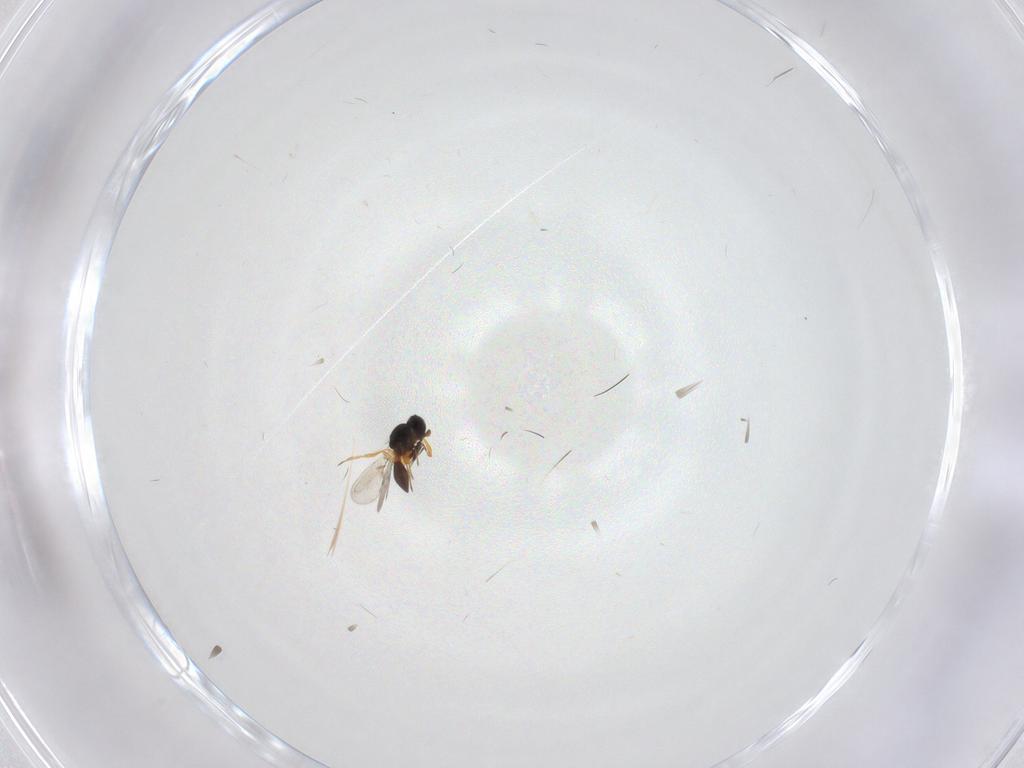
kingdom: Animalia
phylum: Arthropoda
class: Insecta
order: Hymenoptera
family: Platygastridae
